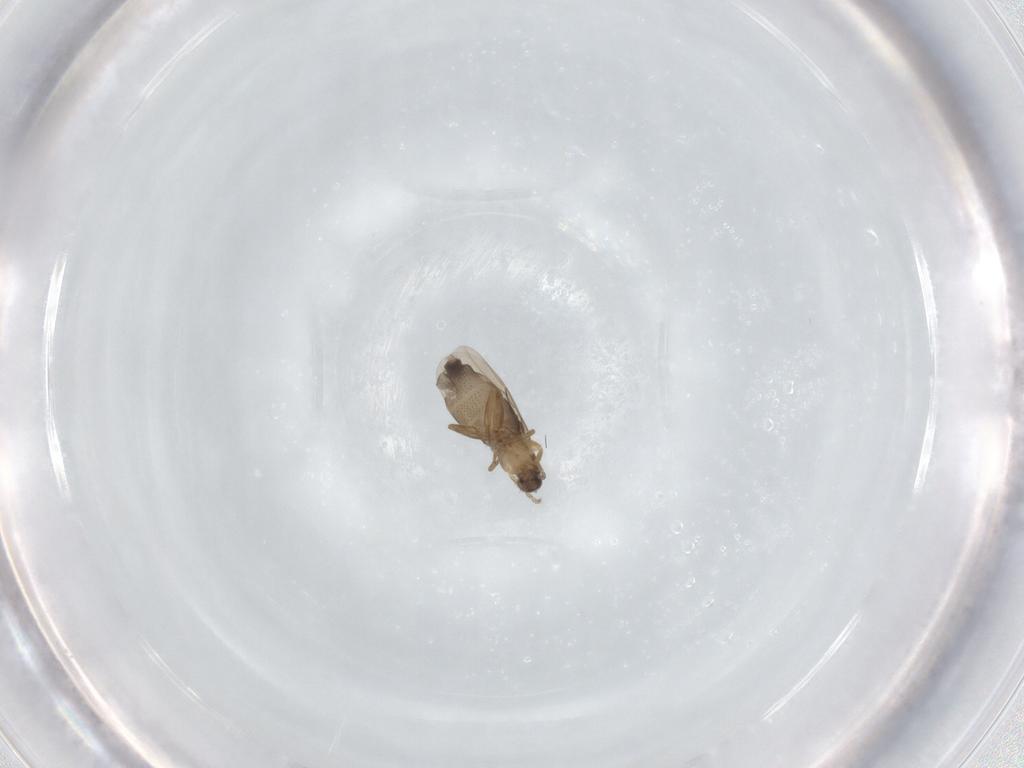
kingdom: Animalia
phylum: Arthropoda
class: Insecta
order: Diptera
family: Phoridae
